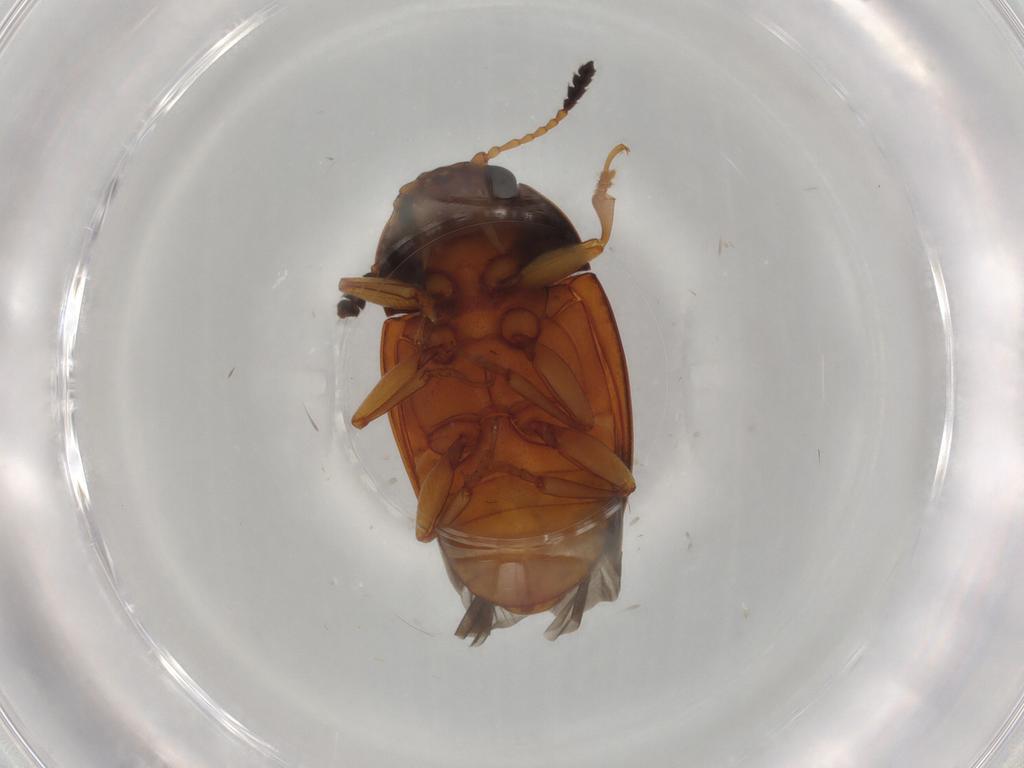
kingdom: Animalia
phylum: Arthropoda
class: Insecta
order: Coleoptera
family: Erotylidae
